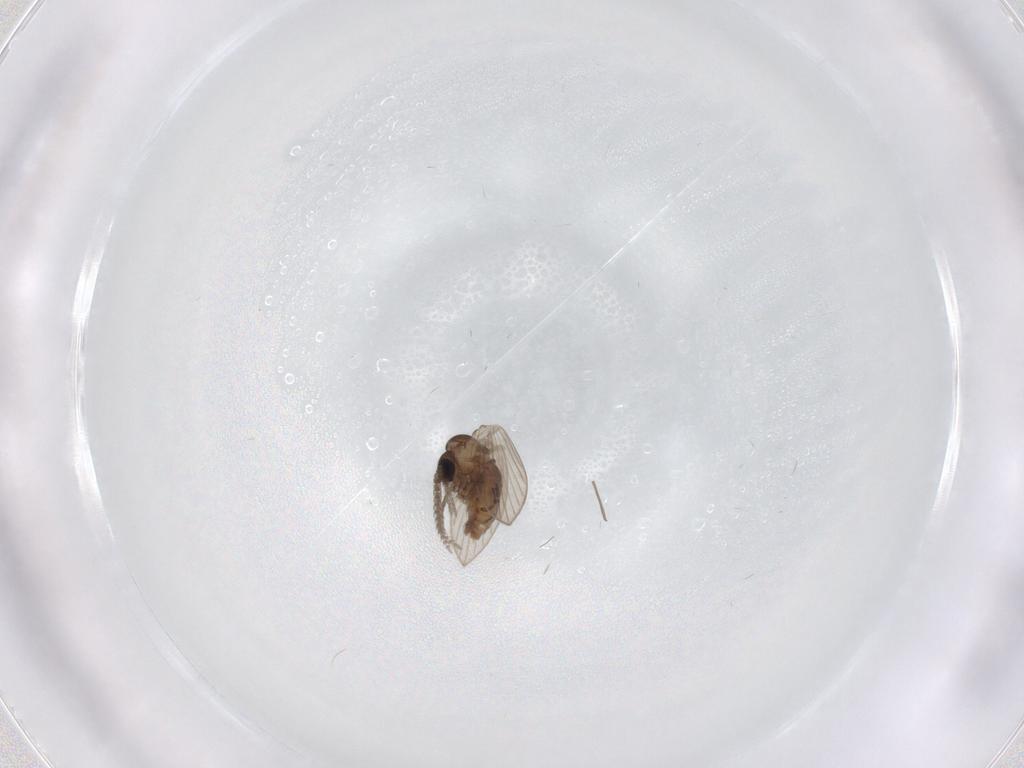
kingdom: Animalia
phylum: Arthropoda
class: Insecta
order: Diptera
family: Psychodidae
